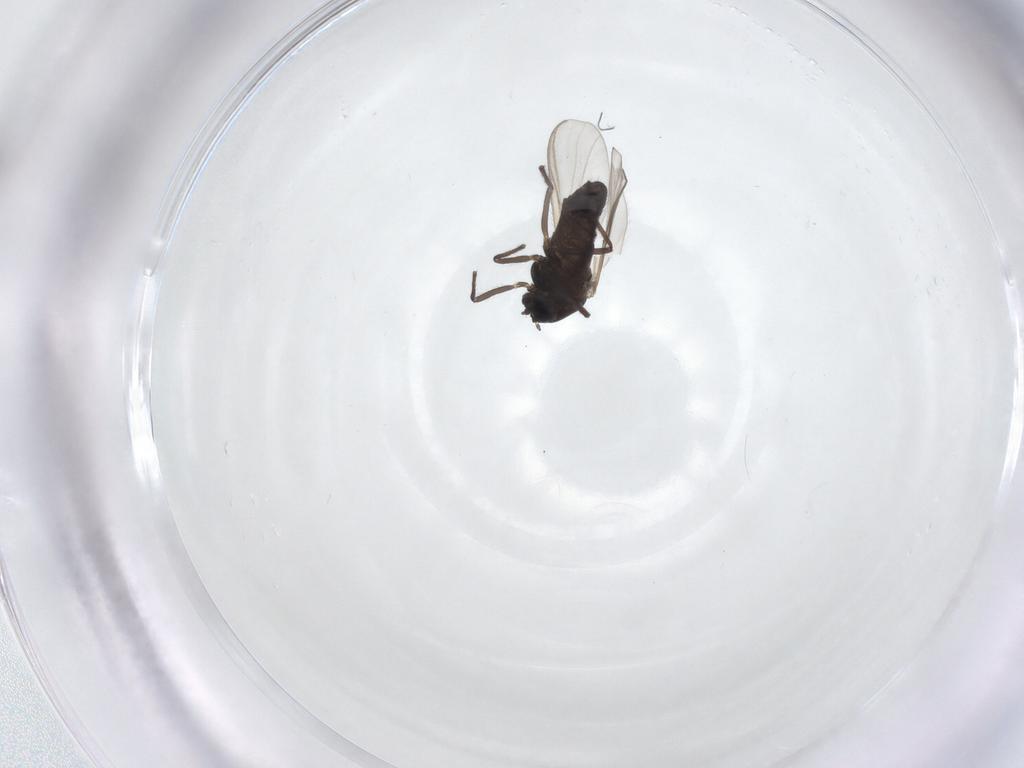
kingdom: Animalia
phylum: Arthropoda
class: Insecta
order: Diptera
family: Chironomidae
